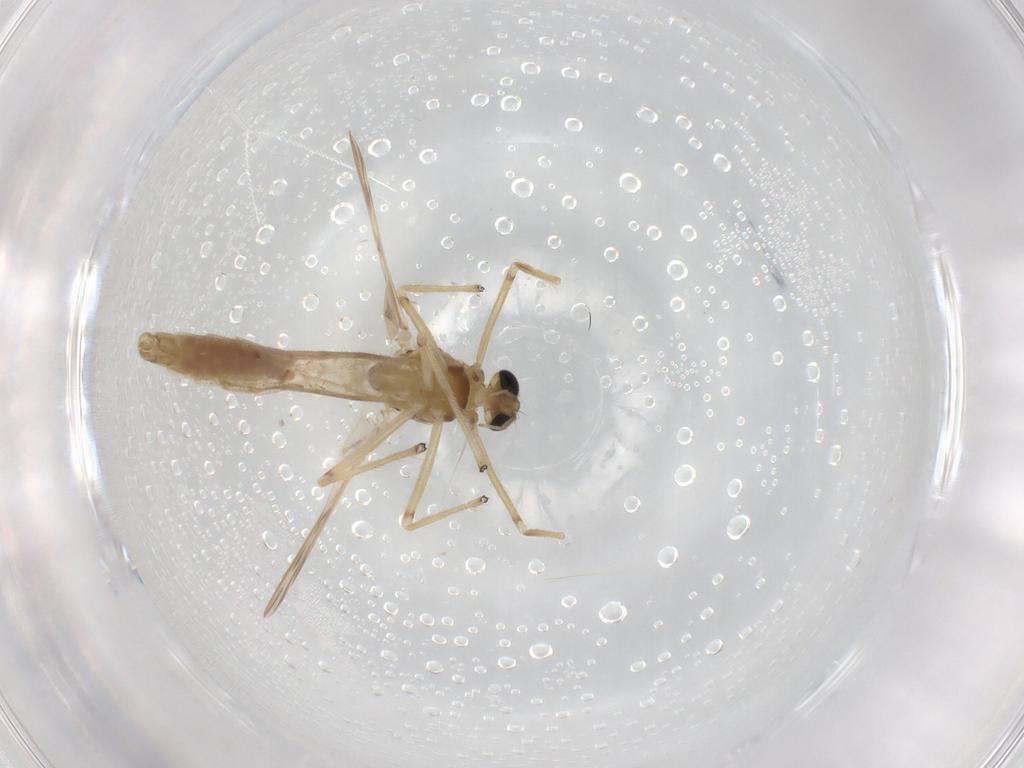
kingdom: Animalia
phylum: Arthropoda
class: Insecta
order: Diptera
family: Chironomidae
